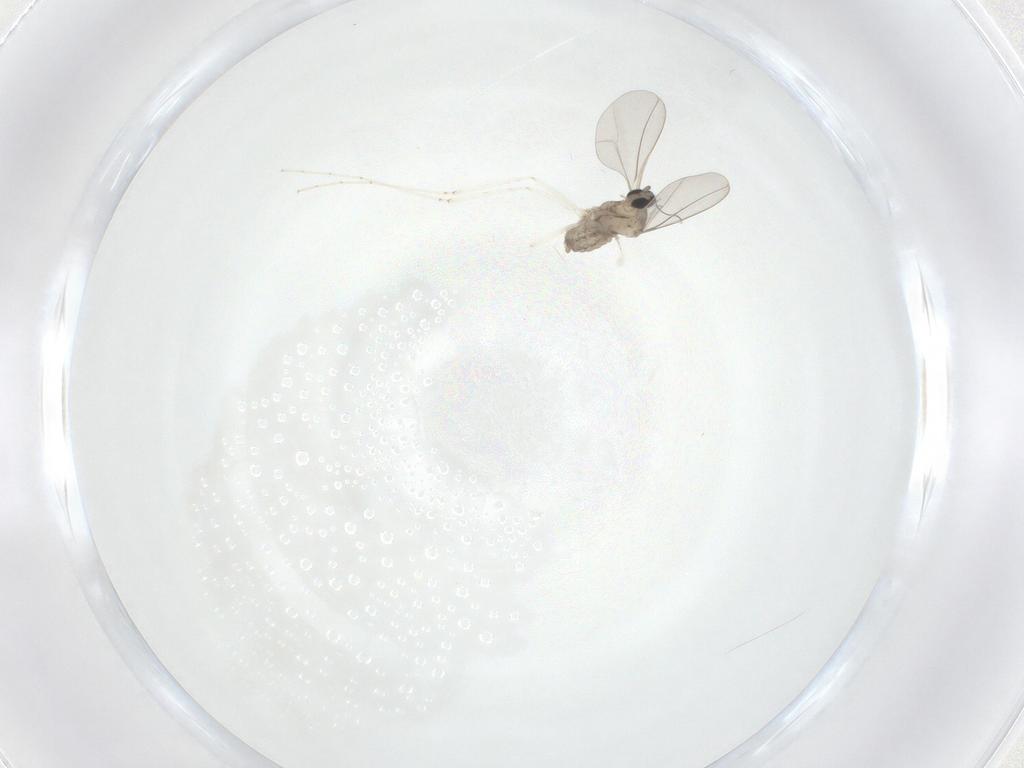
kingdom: Animalia
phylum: Arthropoda
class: Insecta
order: Diptera
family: Cecidomyiidae
